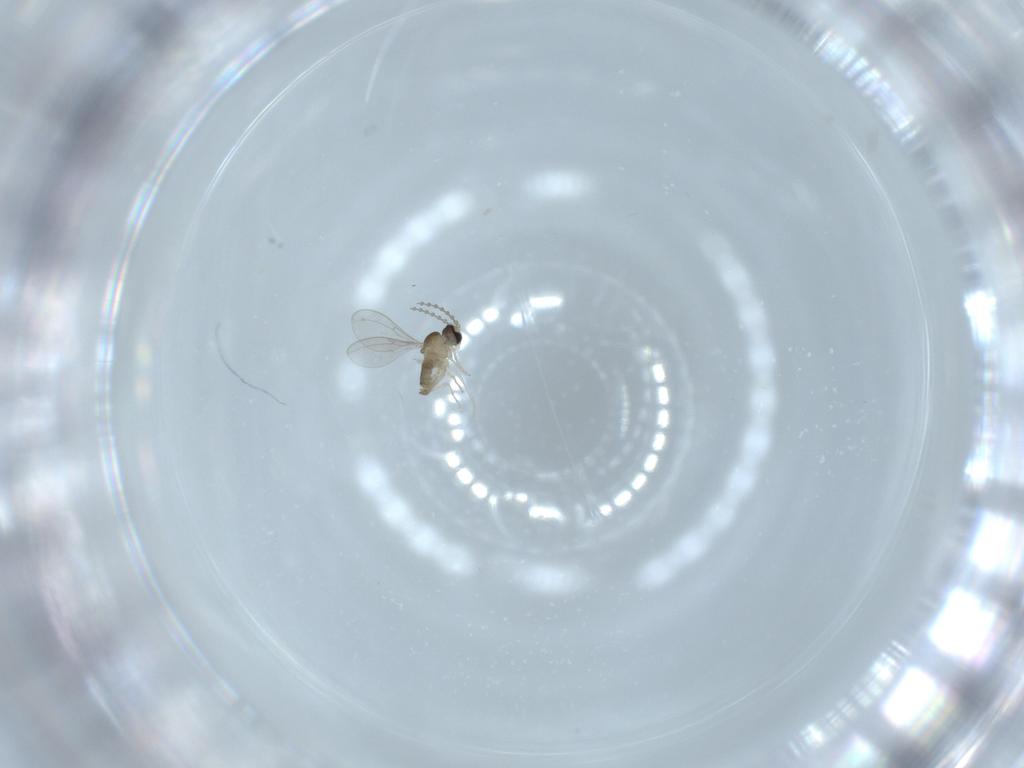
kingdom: Animalia
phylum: Arthropoda
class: Insecta
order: Diptera
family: Cecidomyiidae
